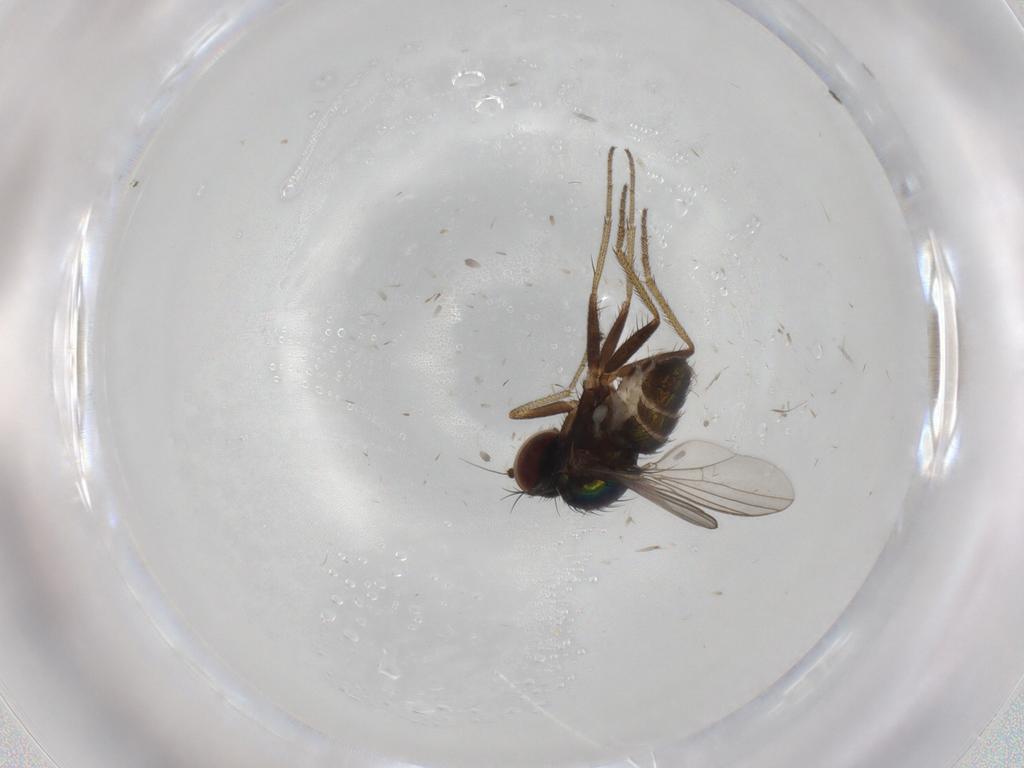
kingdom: Animalia
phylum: Arthropoda
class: Insecta
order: Diptera
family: Dolichopodidae
